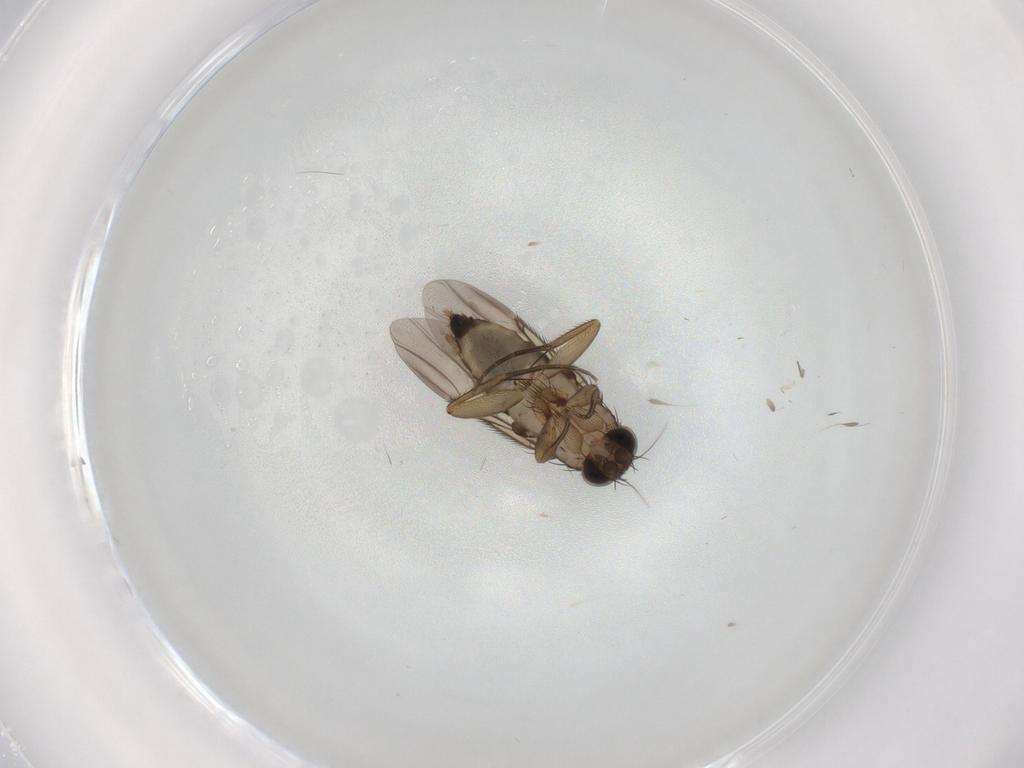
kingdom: Animalia
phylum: Arthropoda
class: Insecta
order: Diptera
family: Phoridae
